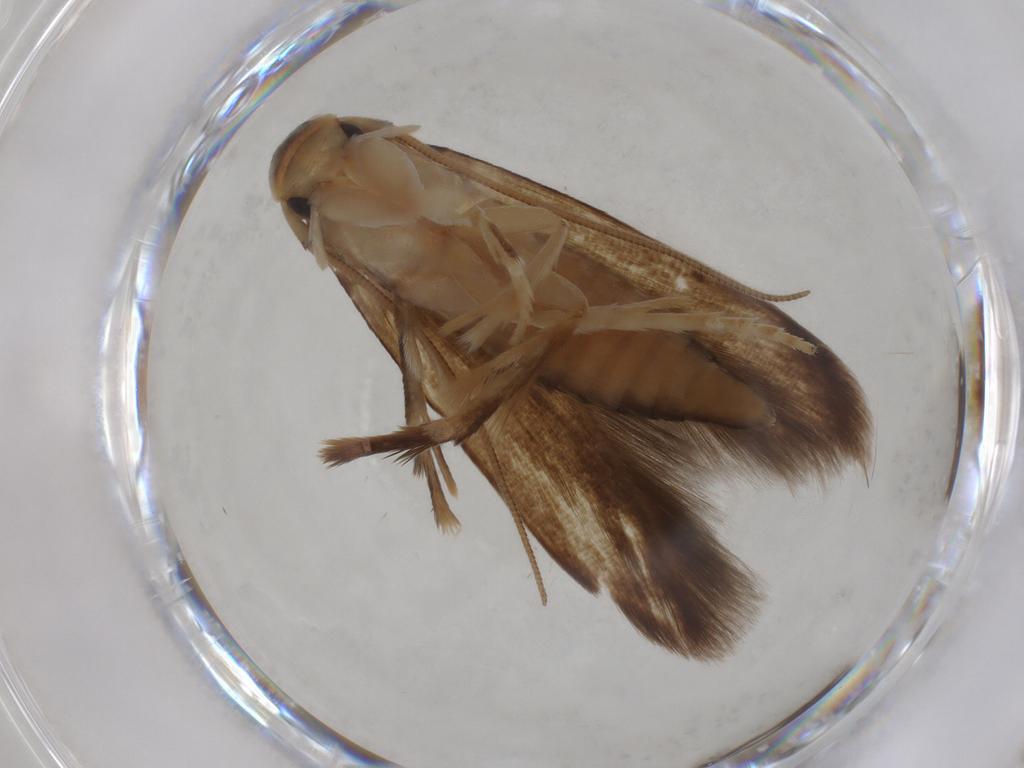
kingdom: Animalia
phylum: Arthropoda
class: Insecta
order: Lepidoptera
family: Tineidae
